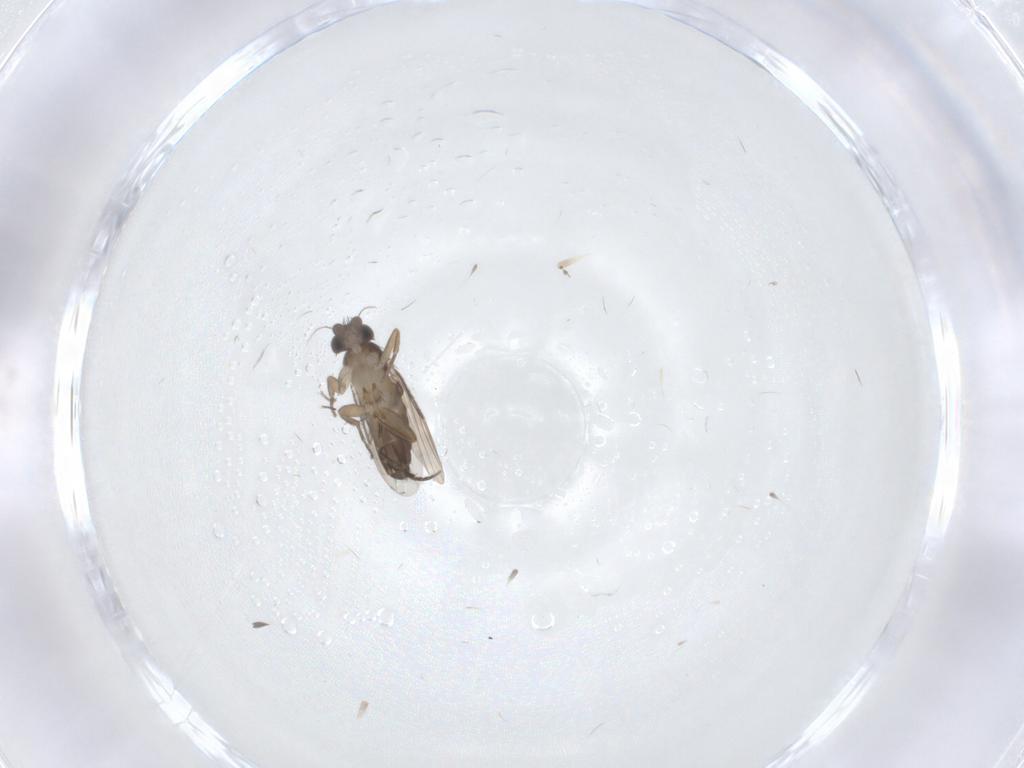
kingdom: Animalia
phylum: Arthropoda
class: Insecta
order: Diptera
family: Phoridae
